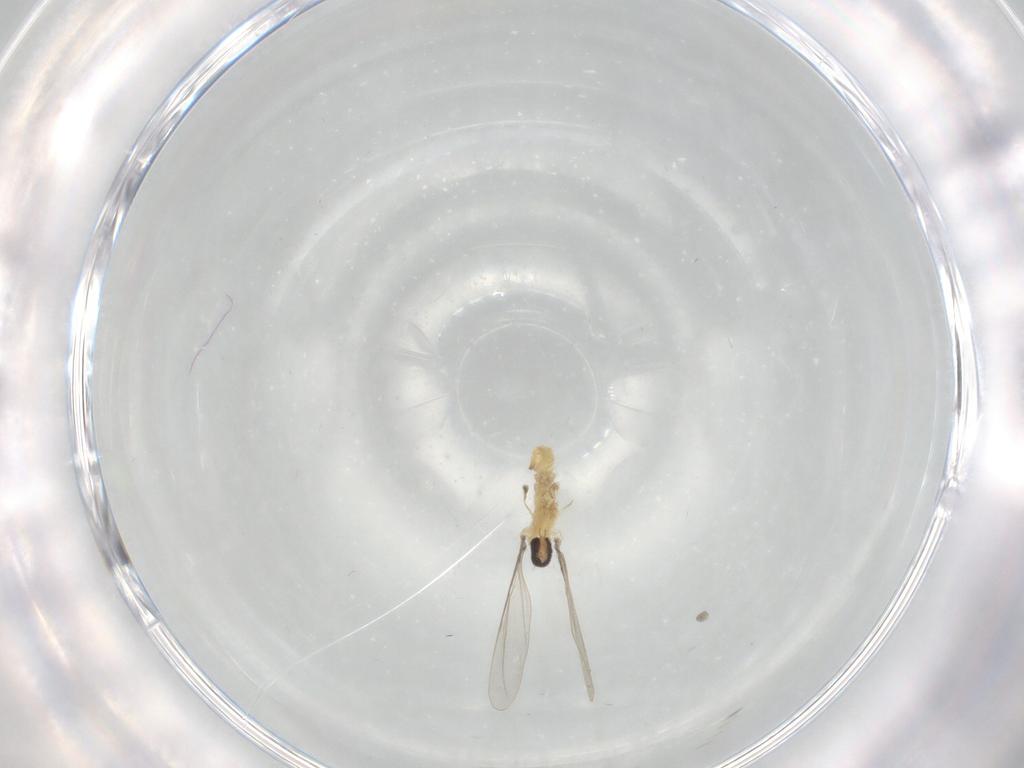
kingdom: Animalia
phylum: Arthropoda
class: Insecta
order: Diptera
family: Cecidomyiidae
